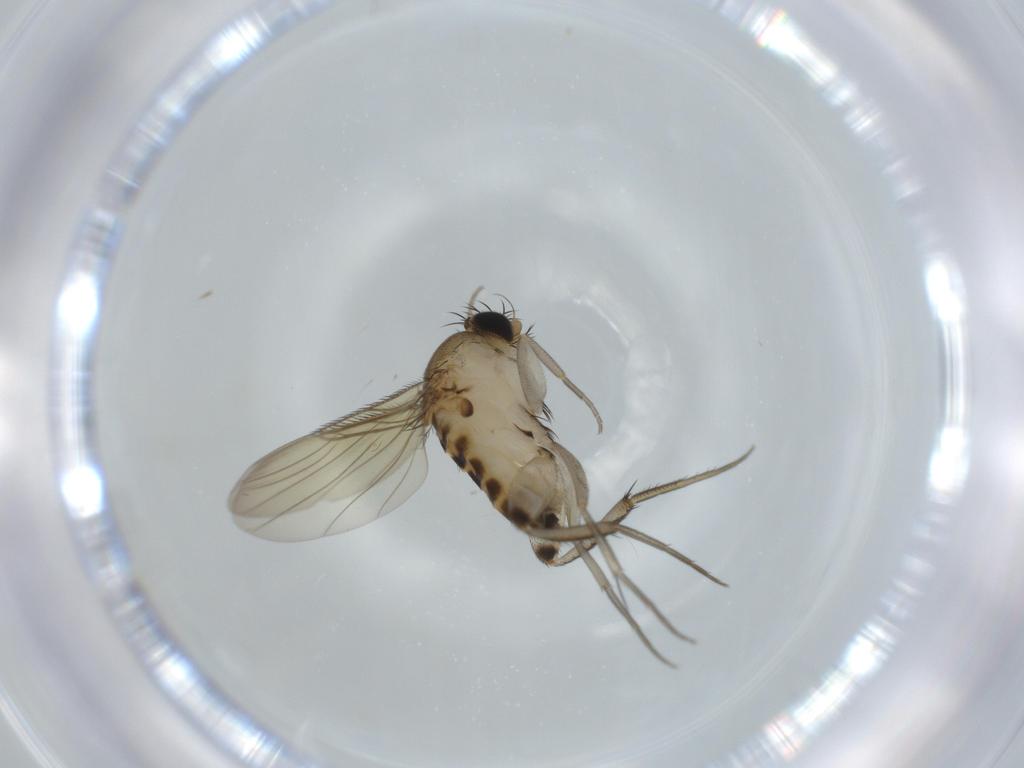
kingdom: Animalia
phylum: Arthropoda
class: Insecta
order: Diptera
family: Phoridae
